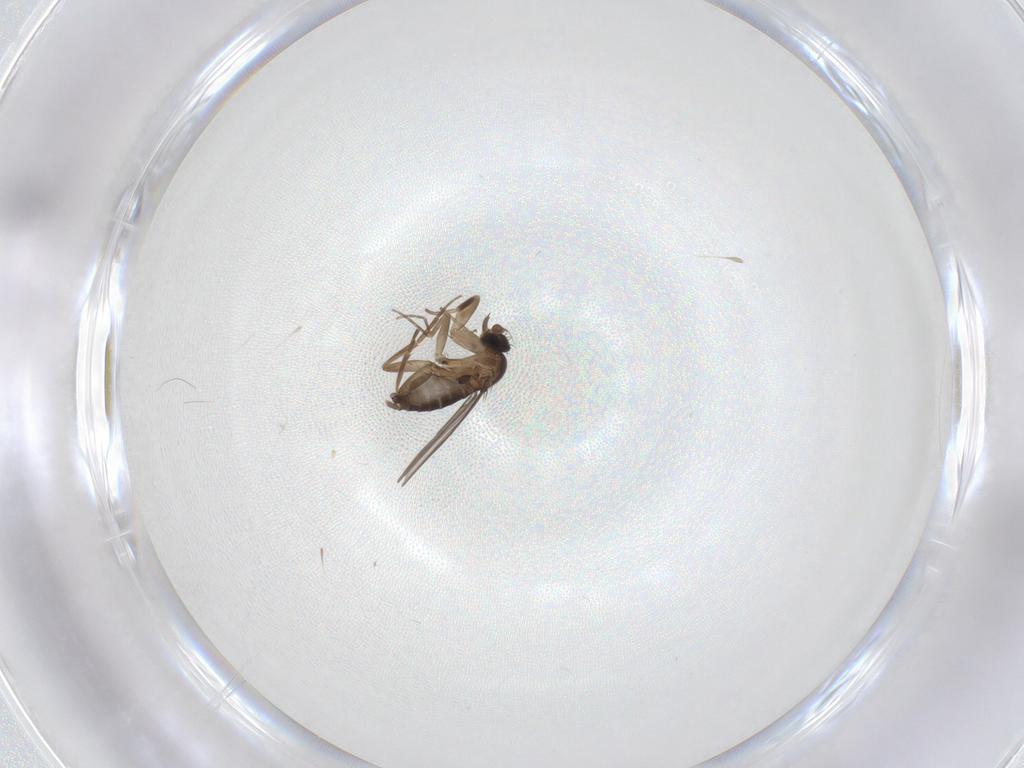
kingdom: Animalia
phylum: Arthropoda
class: Insecta
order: Diptera
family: Phoridae
